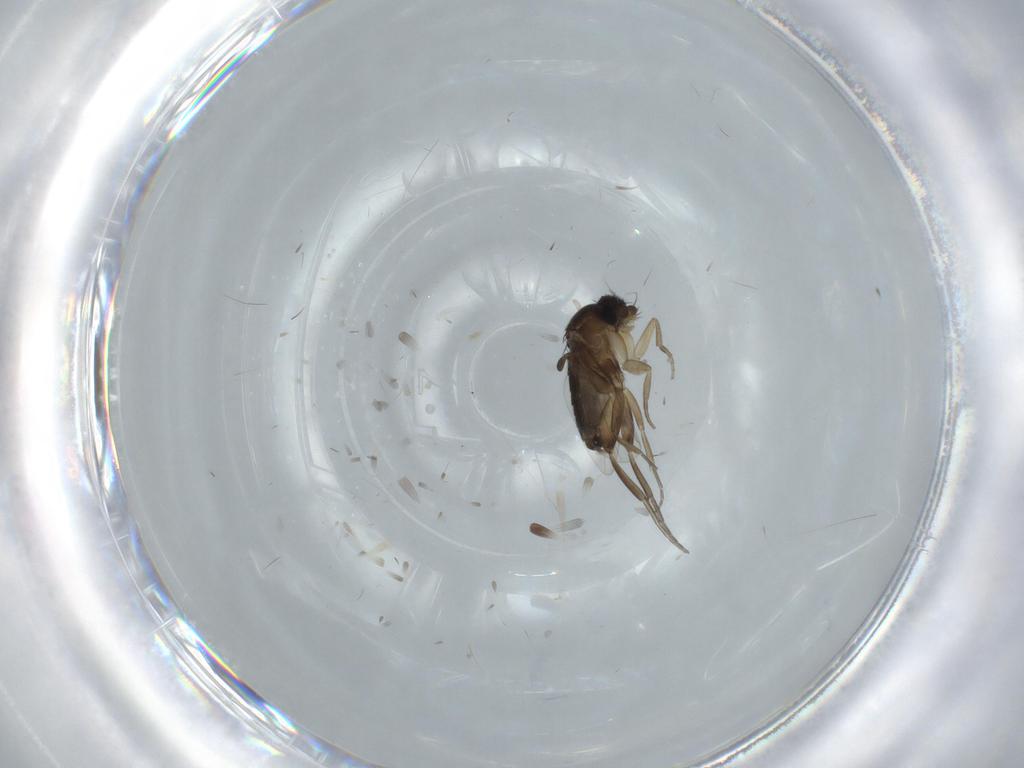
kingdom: Animalia
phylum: Arthropoda
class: Insecta
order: Diptera
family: Phoridae
